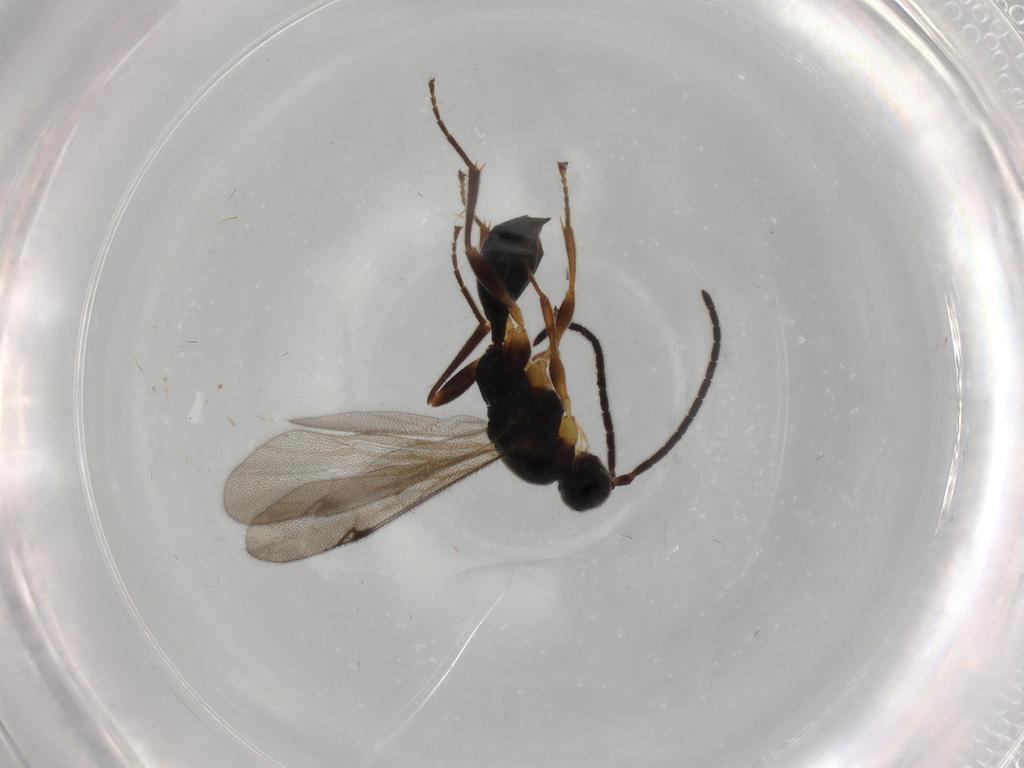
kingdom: Animalia
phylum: Arthropoda
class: Insecta
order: Hymenoptera
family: Proctotrupidae
